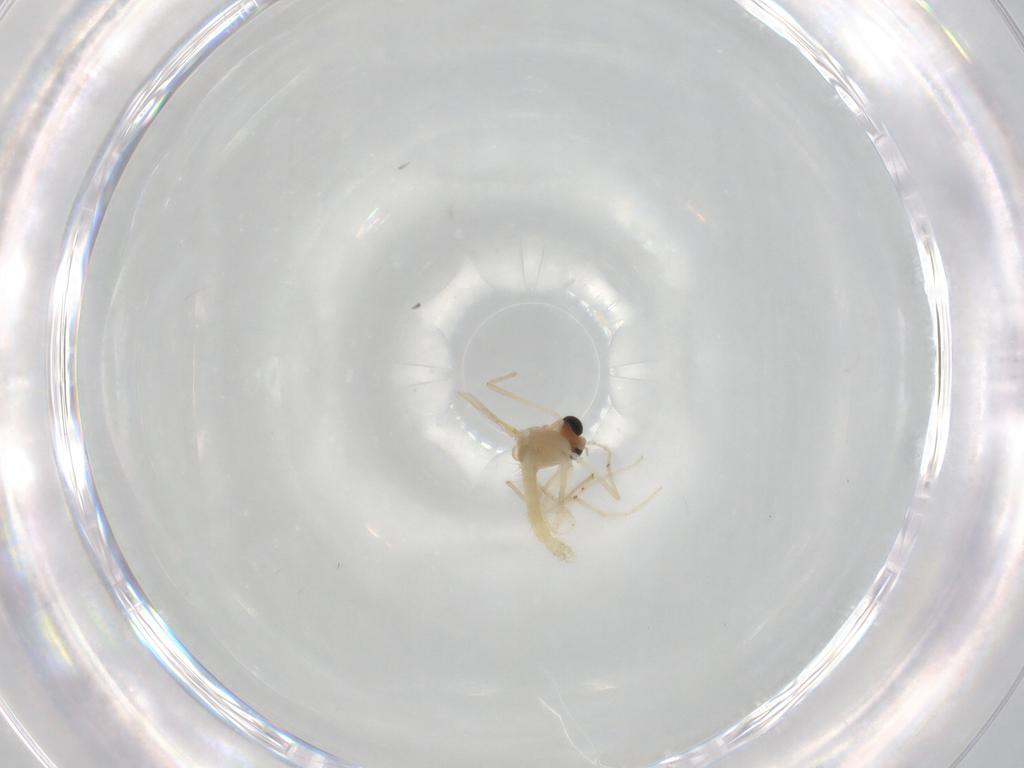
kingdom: Animalia
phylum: Arthropoda
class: Insecta
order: Diptera
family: Chironomidae
